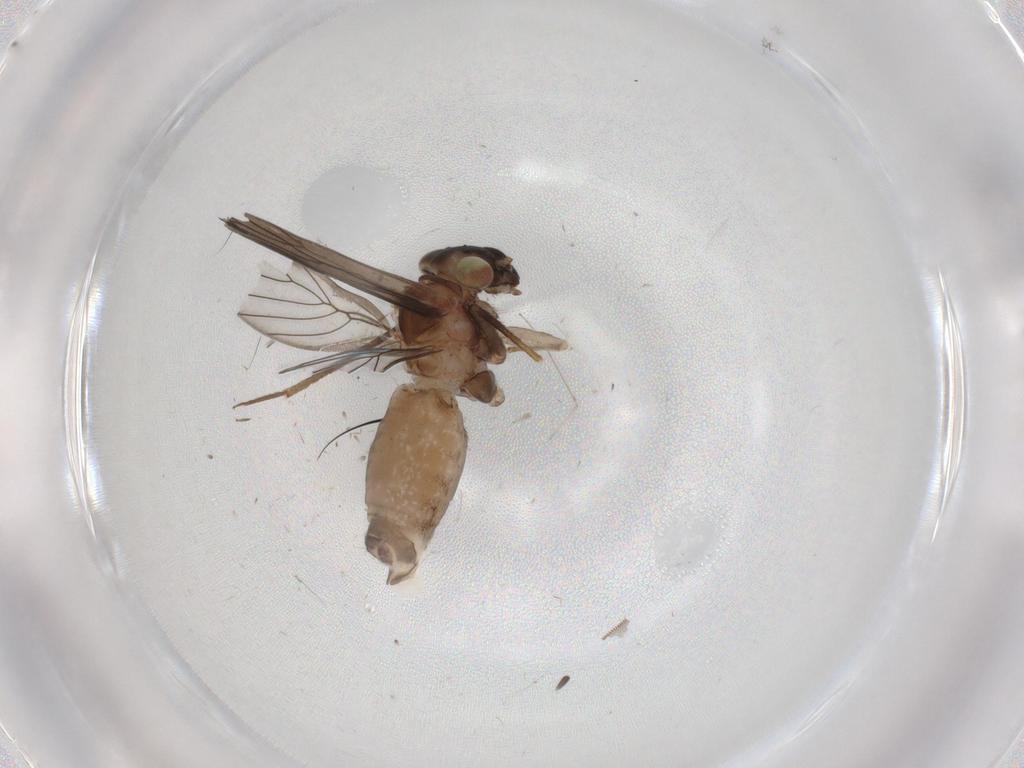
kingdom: Animalia
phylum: Arthropoda
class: Insecta
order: Psocodea
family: Lepidopsocidae
